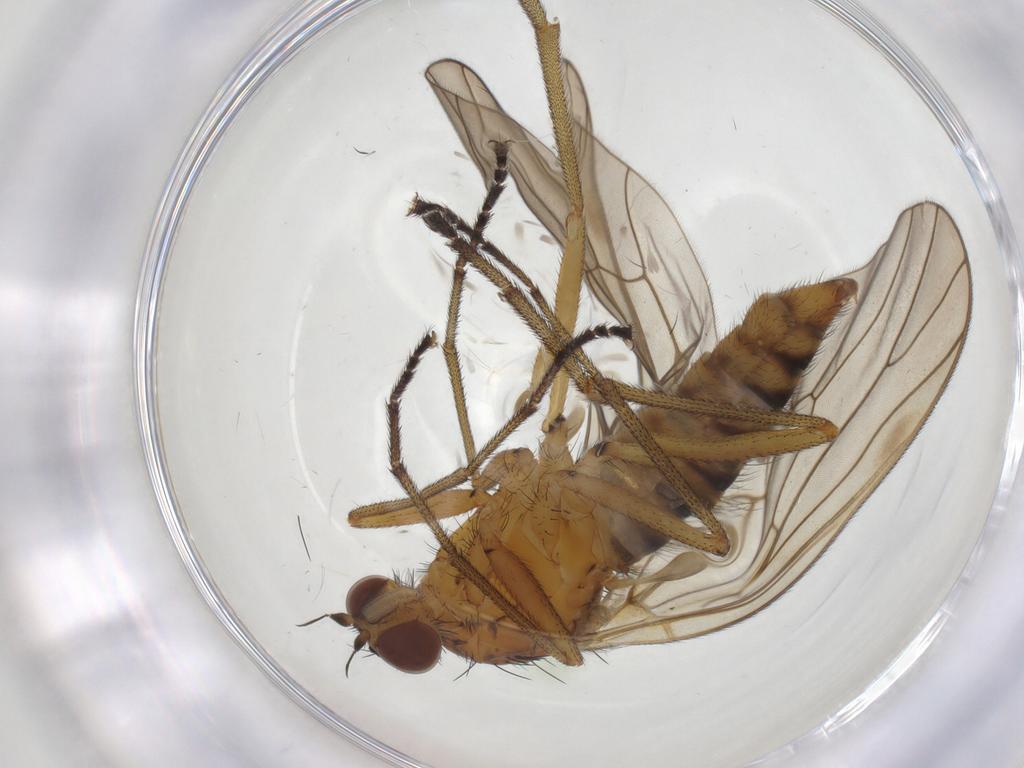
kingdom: Animalia
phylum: Arthropoda
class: Insecta
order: Diptera
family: Brachystomatidae
